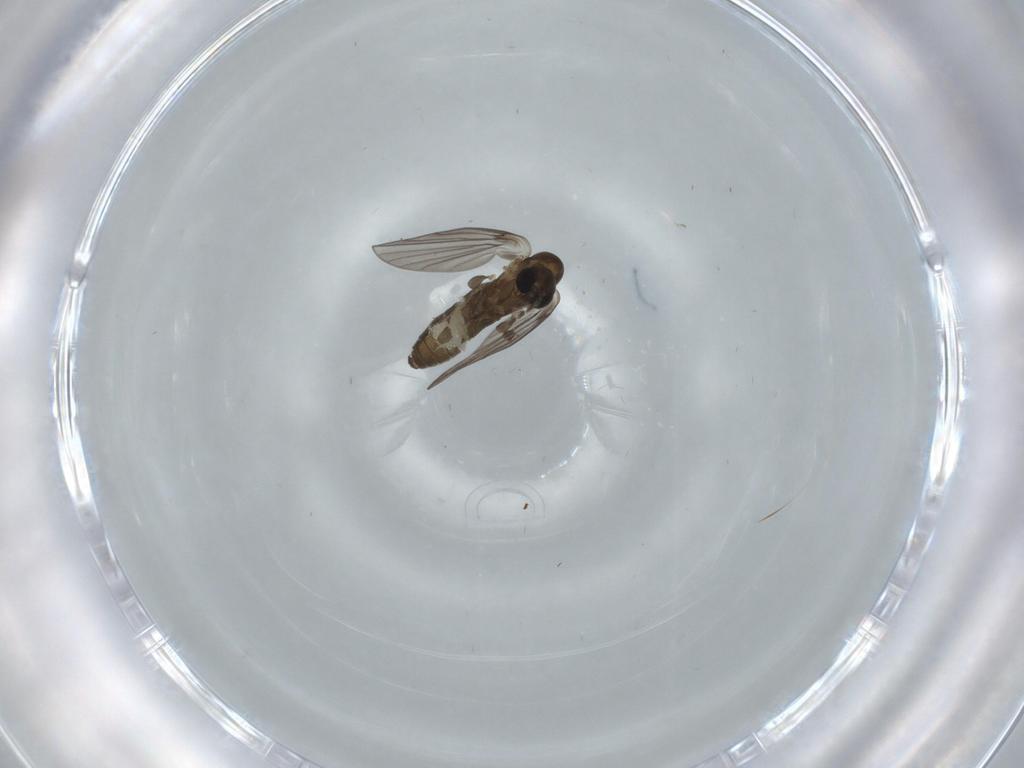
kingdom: Animalia
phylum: Arthropoda
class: Insecta
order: Diptera
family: Psychodidae
